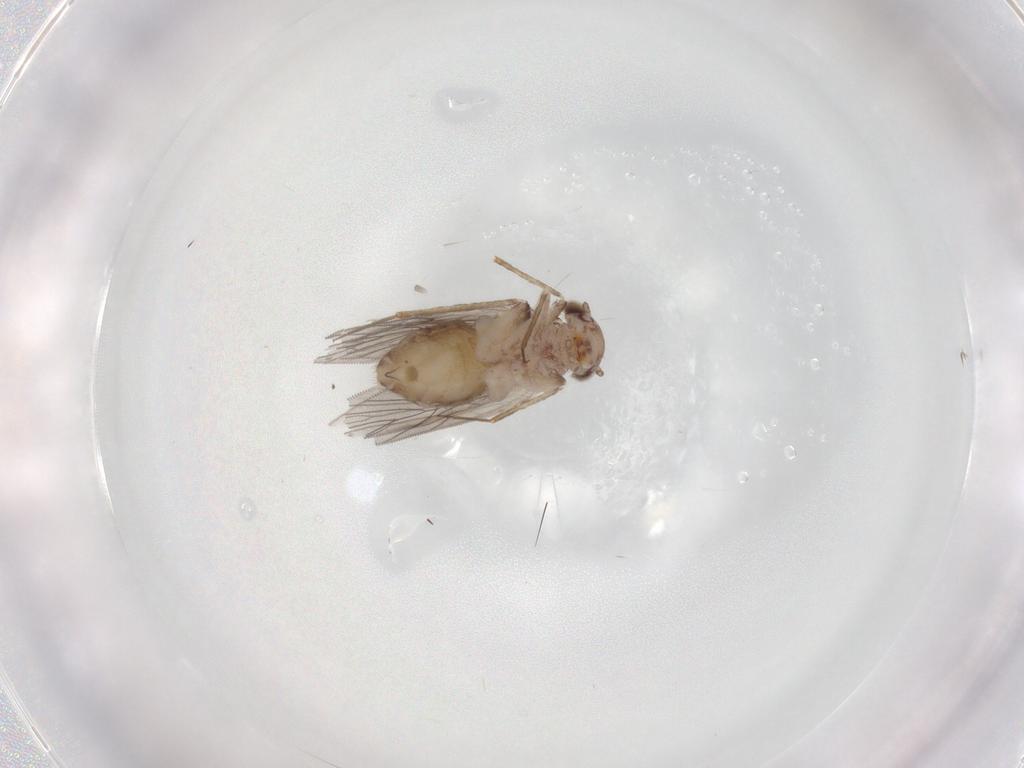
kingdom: Animalia
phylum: Arthropoda
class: Insecta
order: Psocodea
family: Lepidopsocidae
